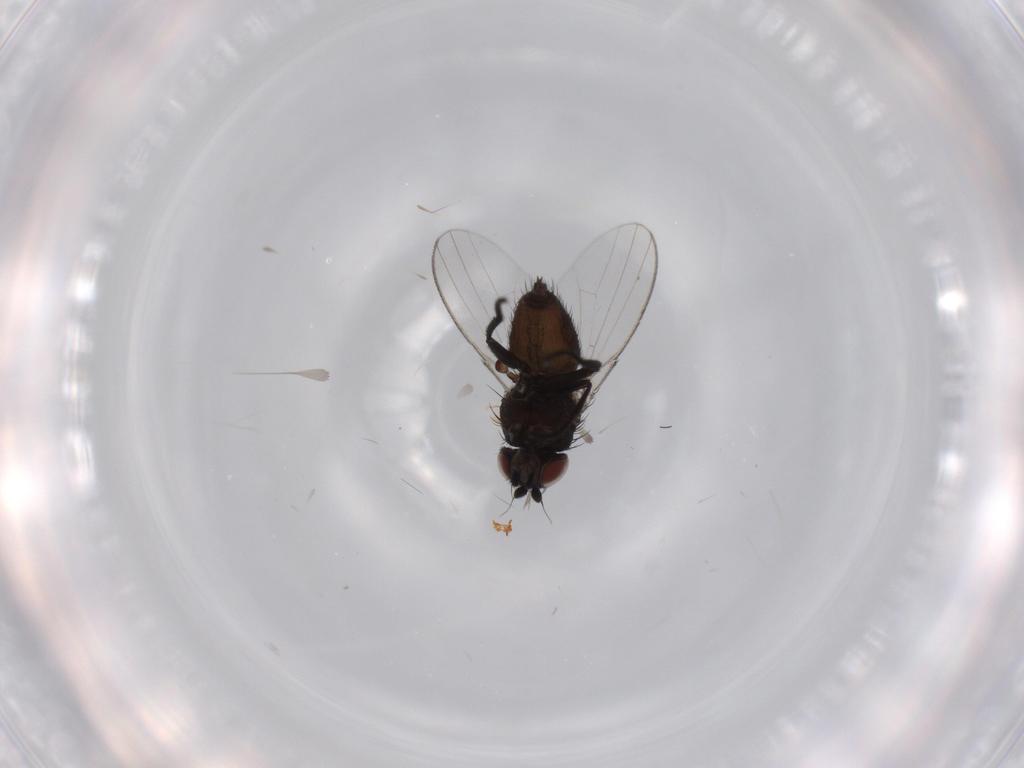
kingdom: Animalia
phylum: Arthropoda
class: Insecta
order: Diptera
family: Milichiidae
